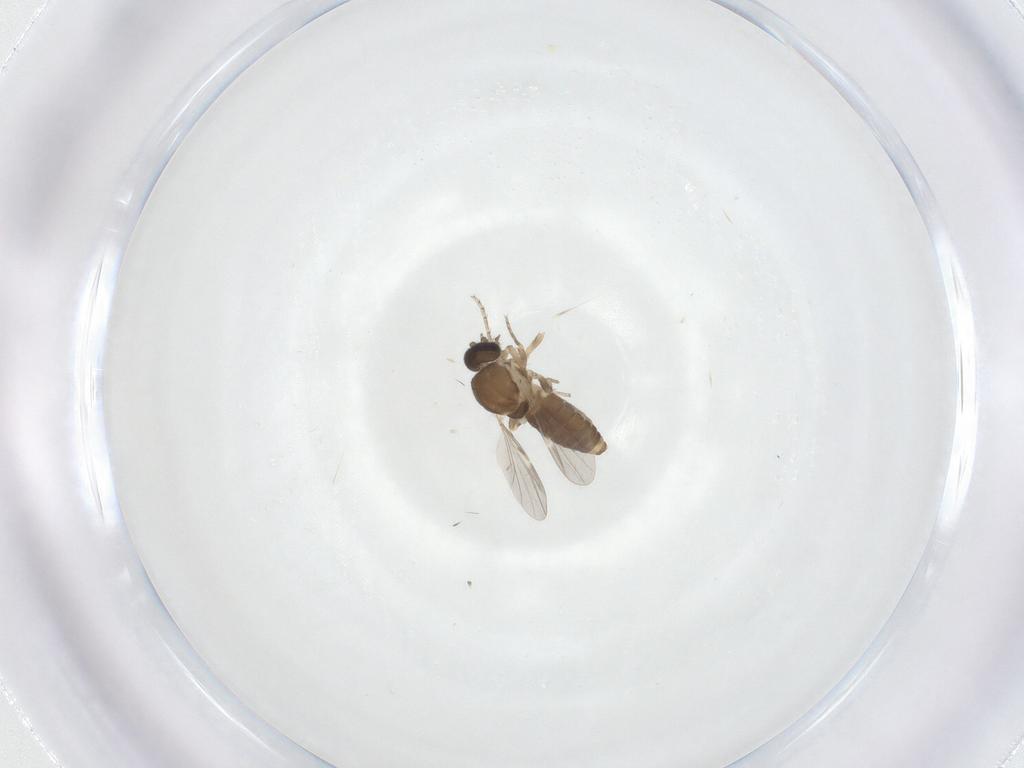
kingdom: Animalia
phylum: Arthropoda
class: Insecta
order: Diptera
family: Ceratopogonidae
